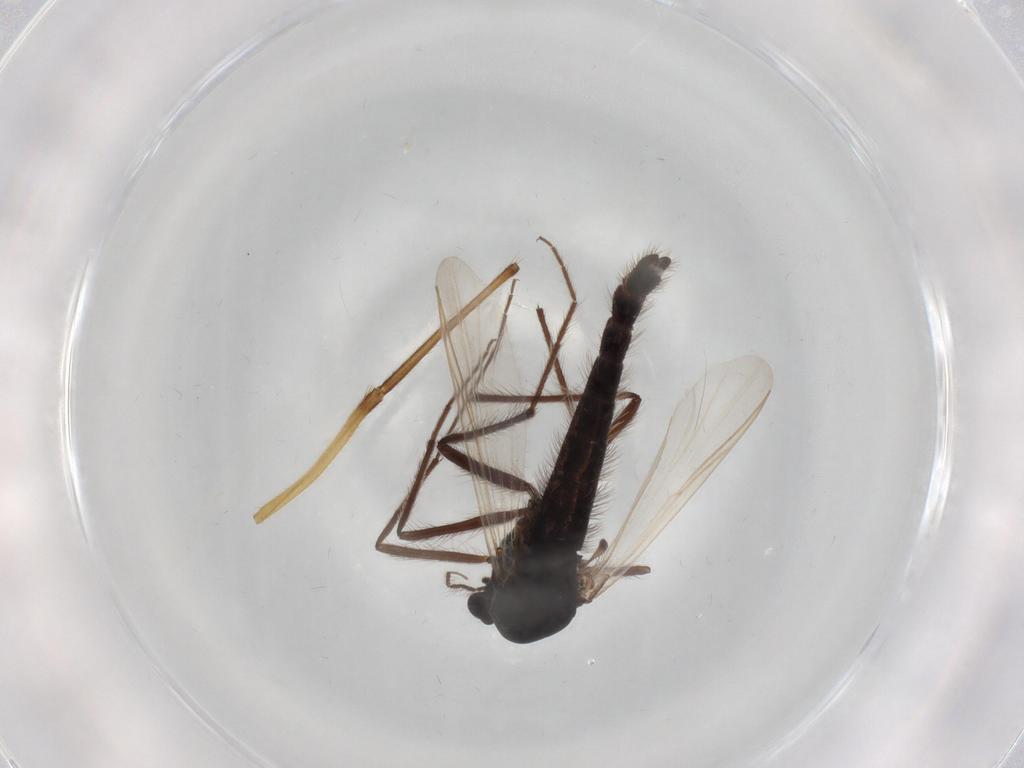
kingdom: Animalia
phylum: Arthropoda
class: Insecta
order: Diptera
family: Hybotidae
